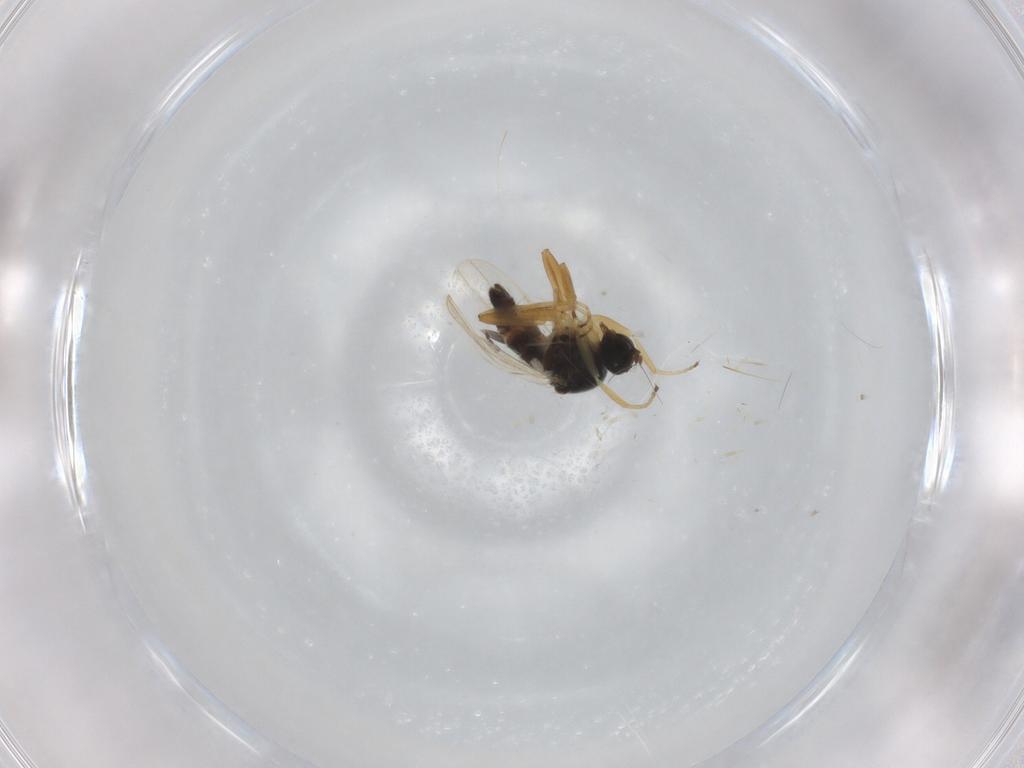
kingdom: Animalia
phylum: Arthropoda
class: Insecta
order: Diptera
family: Hybotidae
